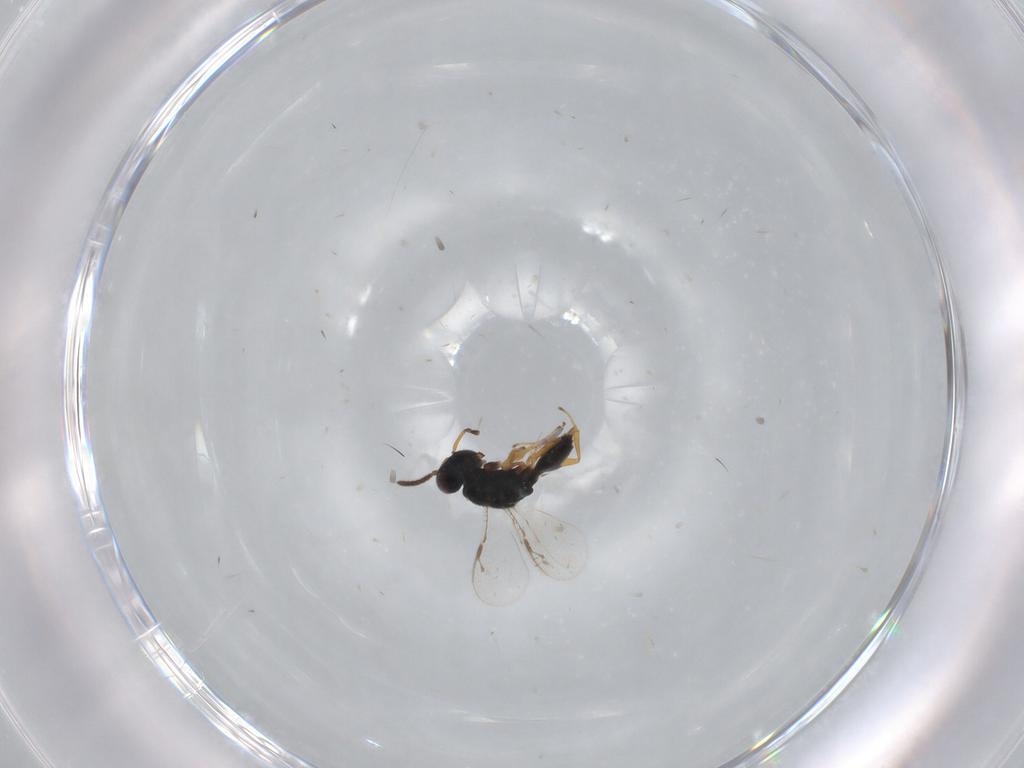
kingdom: Animalia
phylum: Arthropoda
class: Insecta
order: Hymenoptera
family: Pteromalidae
